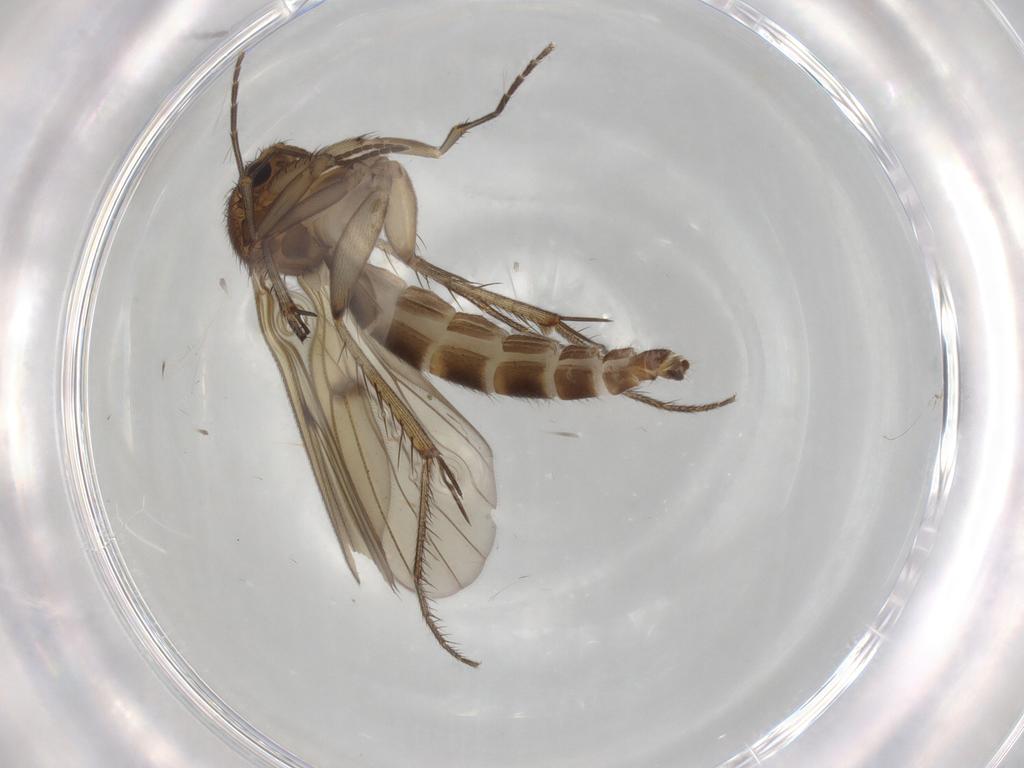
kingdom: Animalia
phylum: Arthropoda
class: Insecta
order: Diptera
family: Mycetophilidae
